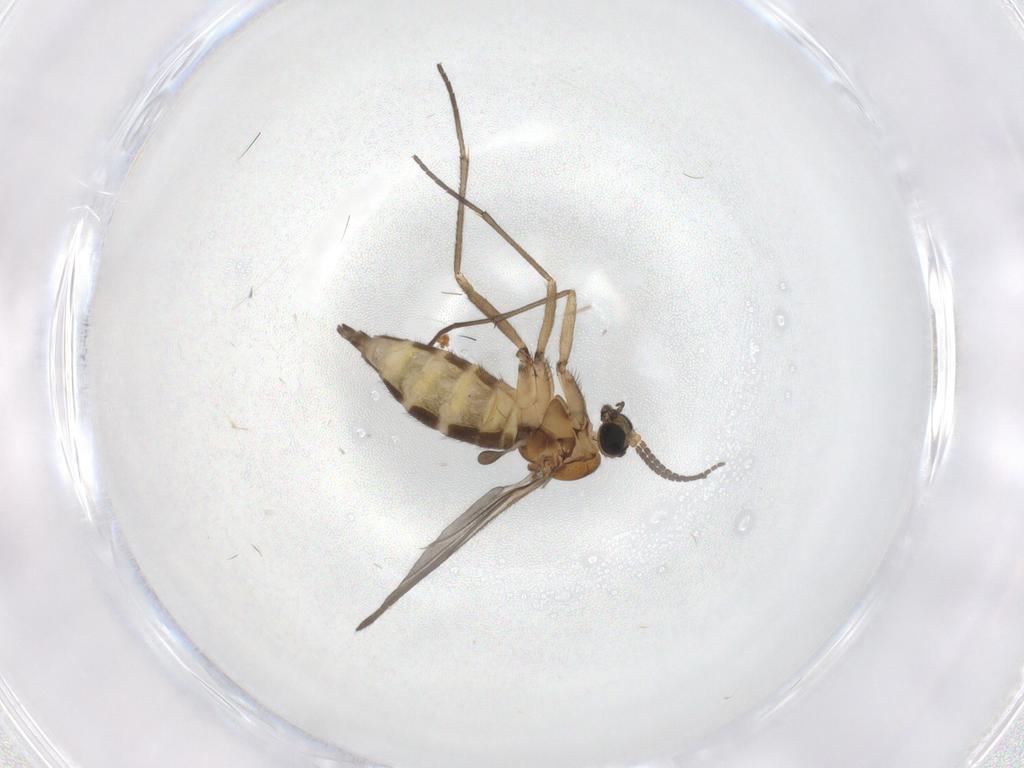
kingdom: Animalia
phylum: Arthropoda
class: Insecta
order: Diptera
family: Sciaridae
